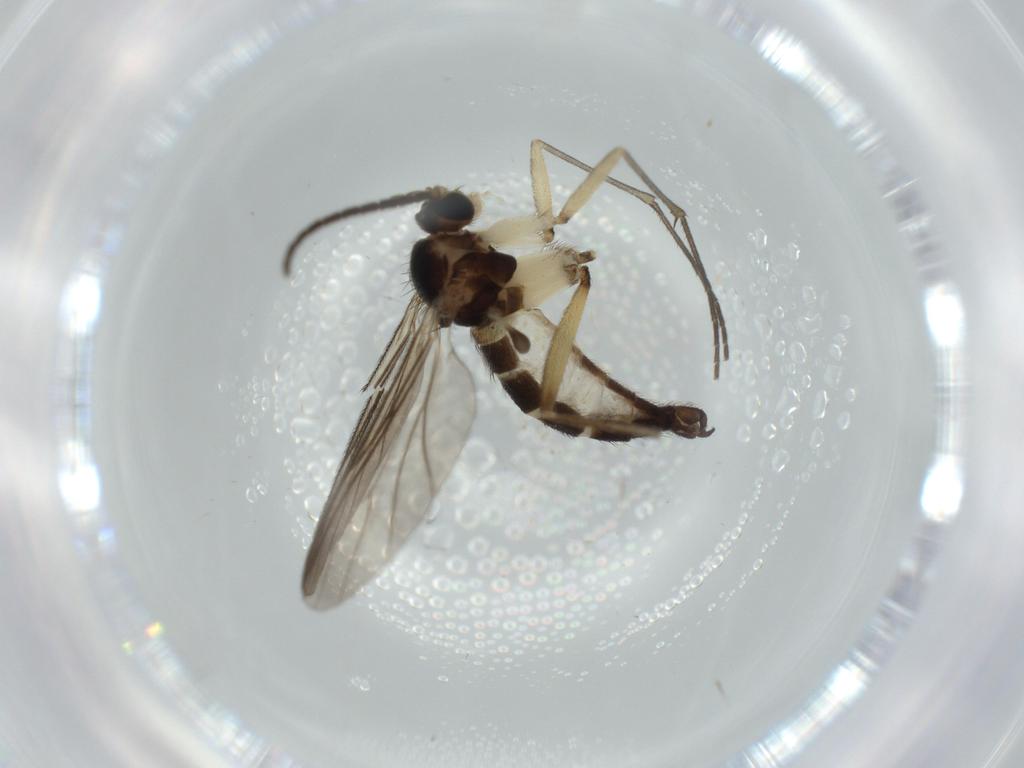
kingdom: Animalia
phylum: Arthropoda
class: Insecta
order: Diptera
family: Sciaridae
